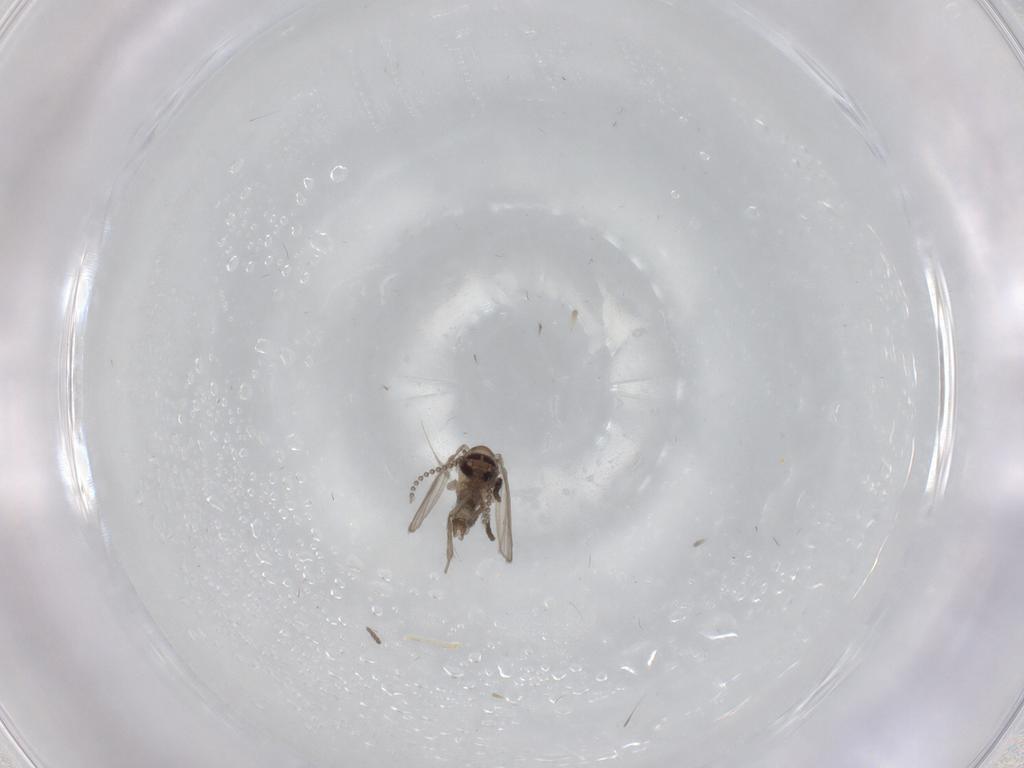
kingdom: Animalia
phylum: Arthropoda
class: Insecta
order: Diptera
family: Psychodidae
